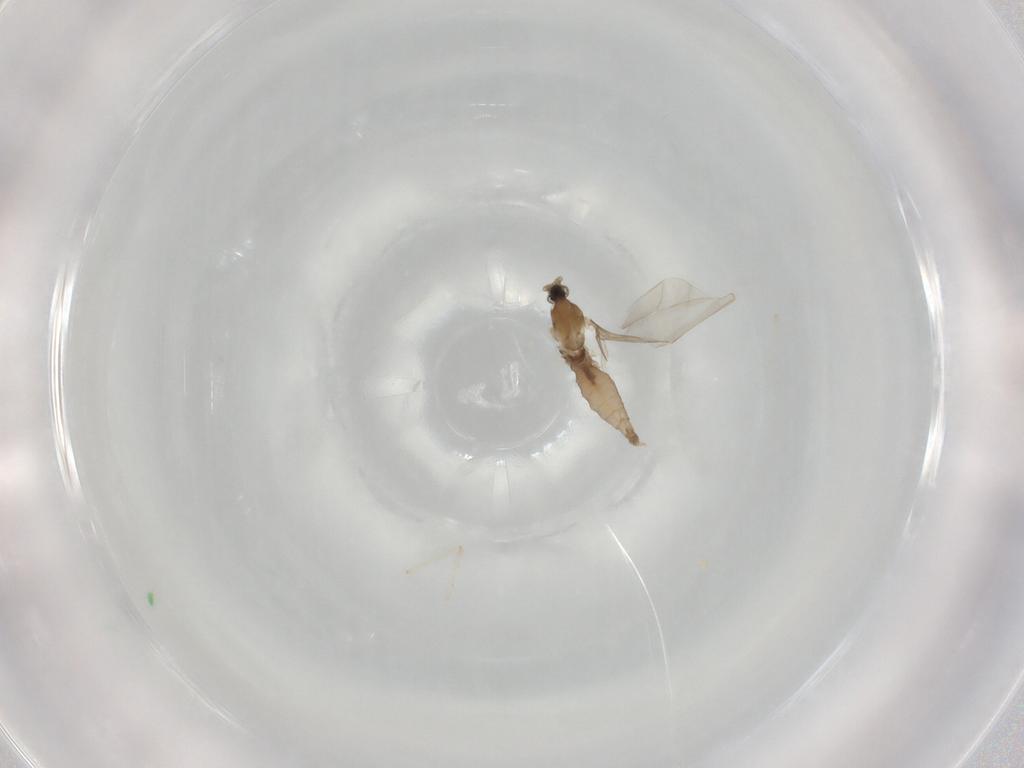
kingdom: Animalia
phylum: Arthropoda
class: Insecta
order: Diptera
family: Cecidomyiidae
